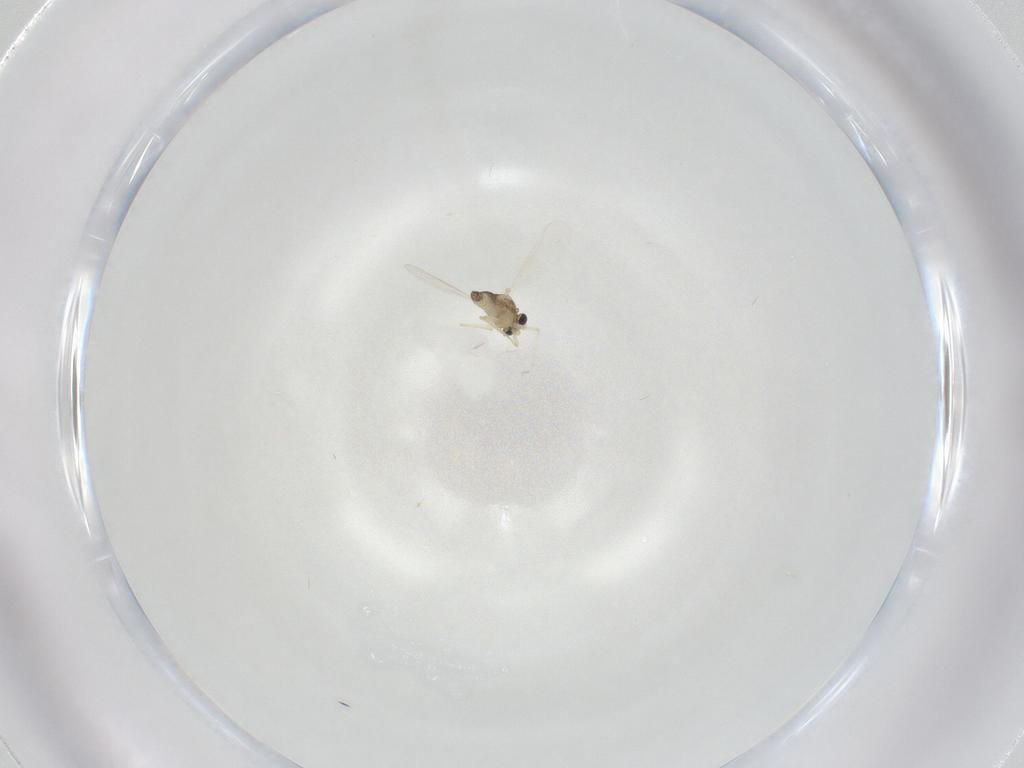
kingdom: Animalia
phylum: Arthropoda
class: Insecta
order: Diptera
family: Chironomidae
